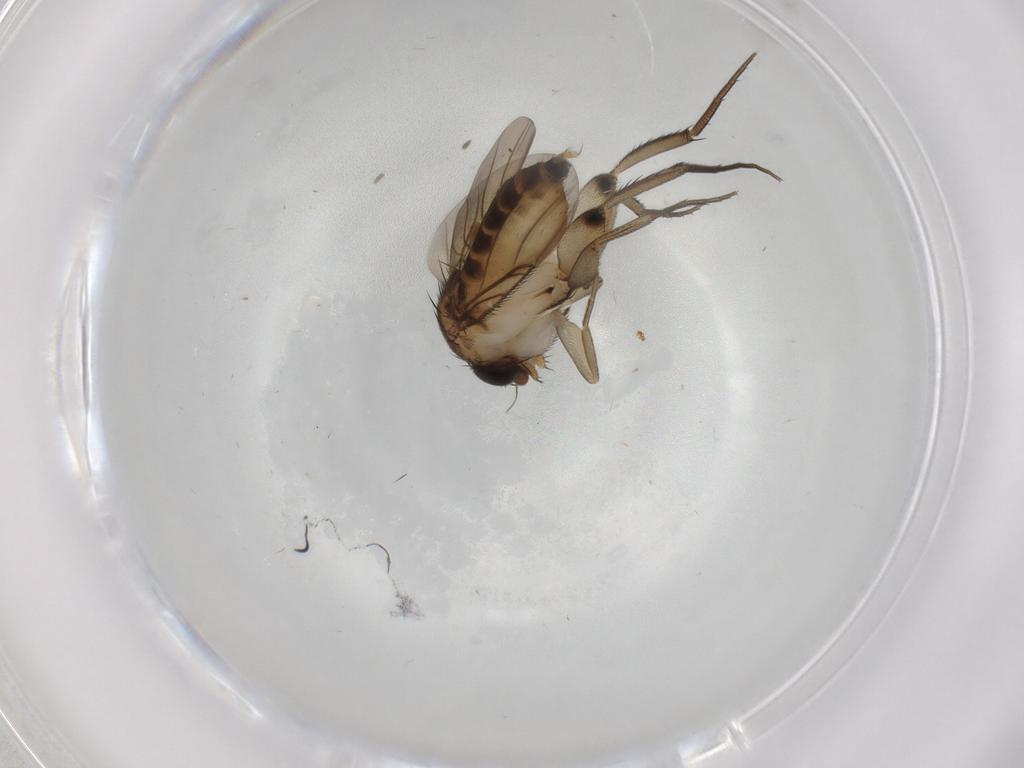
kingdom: Animalia
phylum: Arthropoda
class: Insecta
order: Diptera
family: Phoridae
